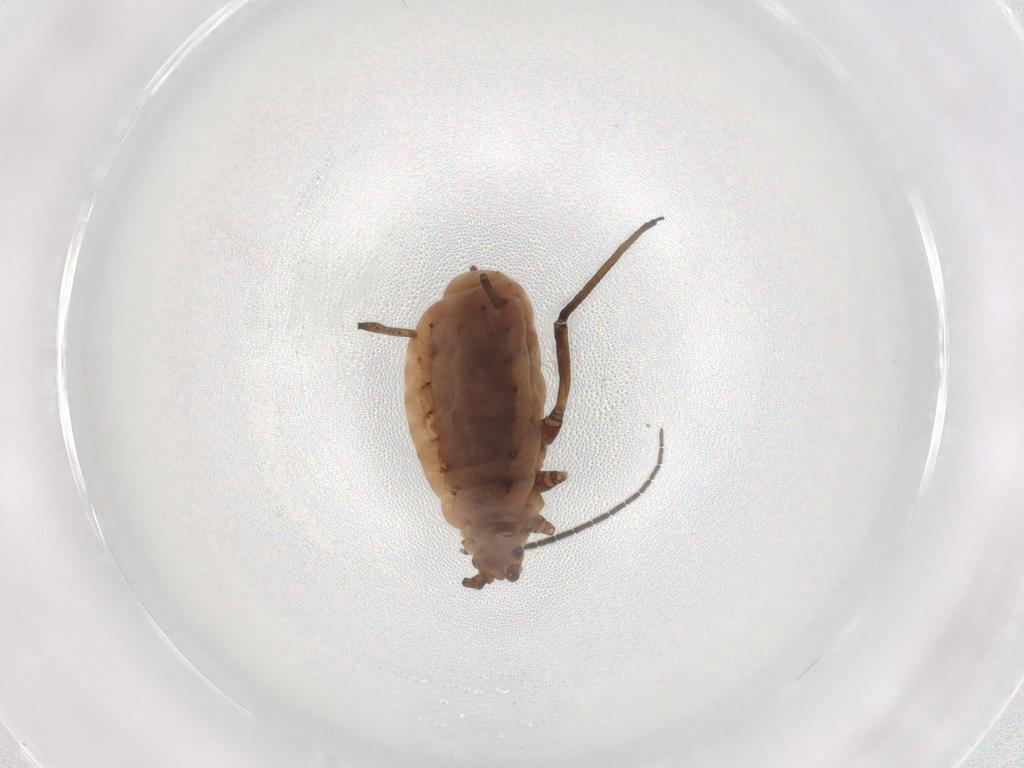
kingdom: Animalia
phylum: Arthropoda
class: Insecta
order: Hemiptera
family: Aphididae
